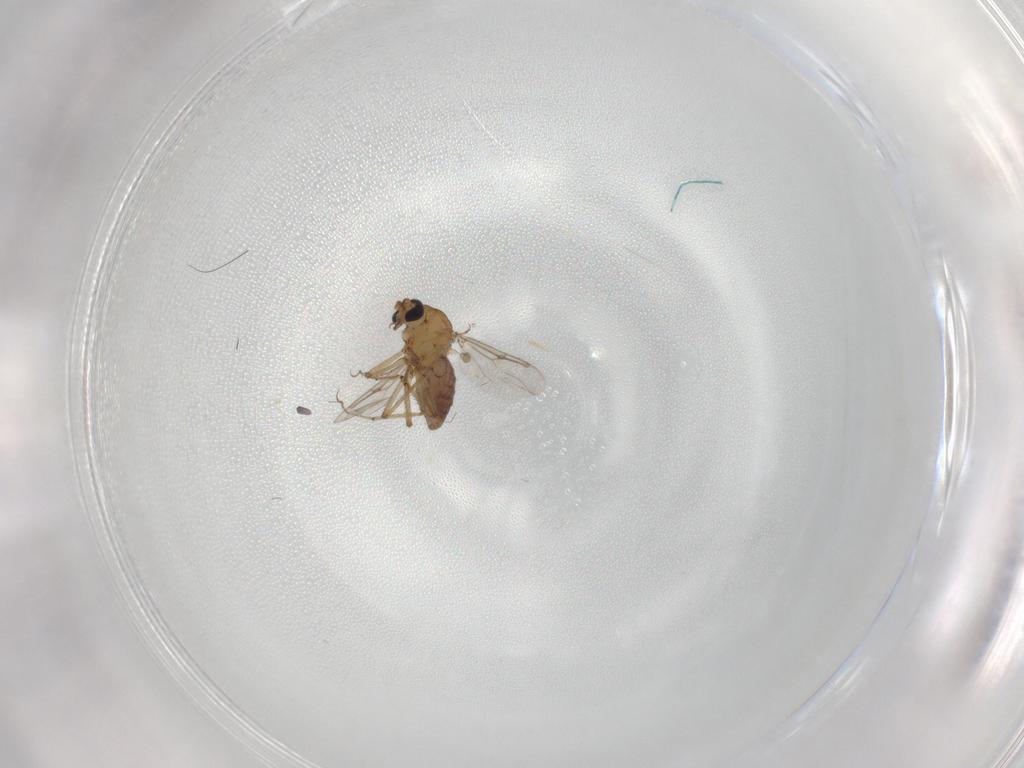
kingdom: Animalia
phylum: Arthropoda
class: Insecta
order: Diptera
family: Ceratopogonidae
